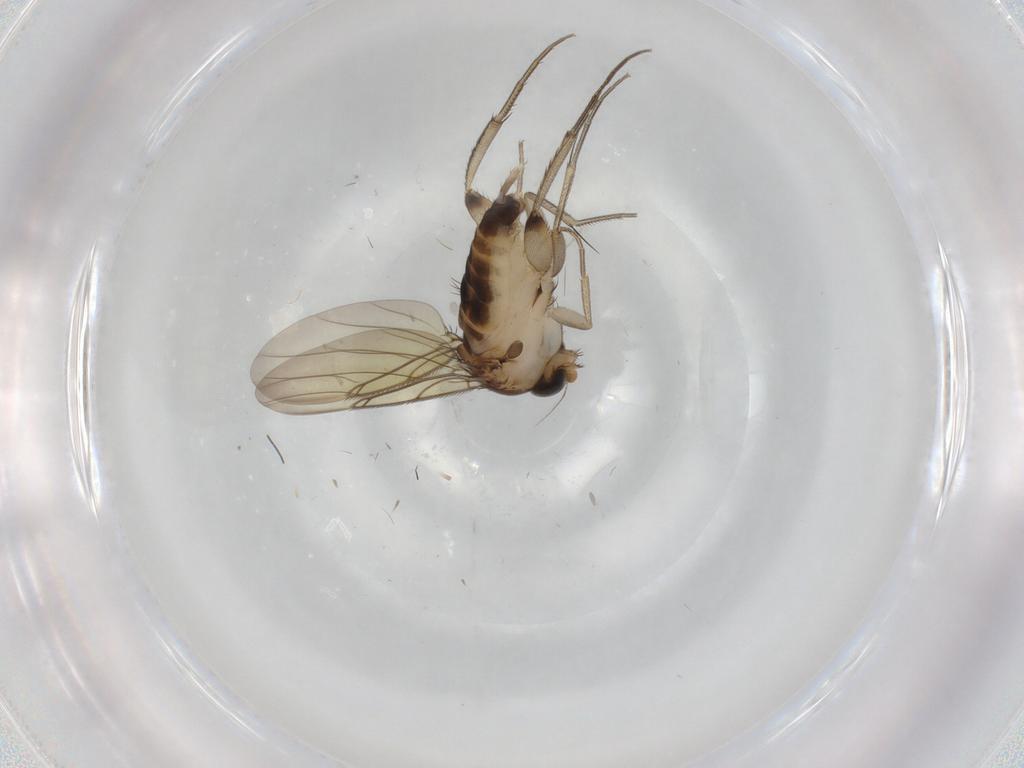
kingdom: Animalia
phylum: Arthropoda
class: Insecta
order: Diptera
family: Phoridae
